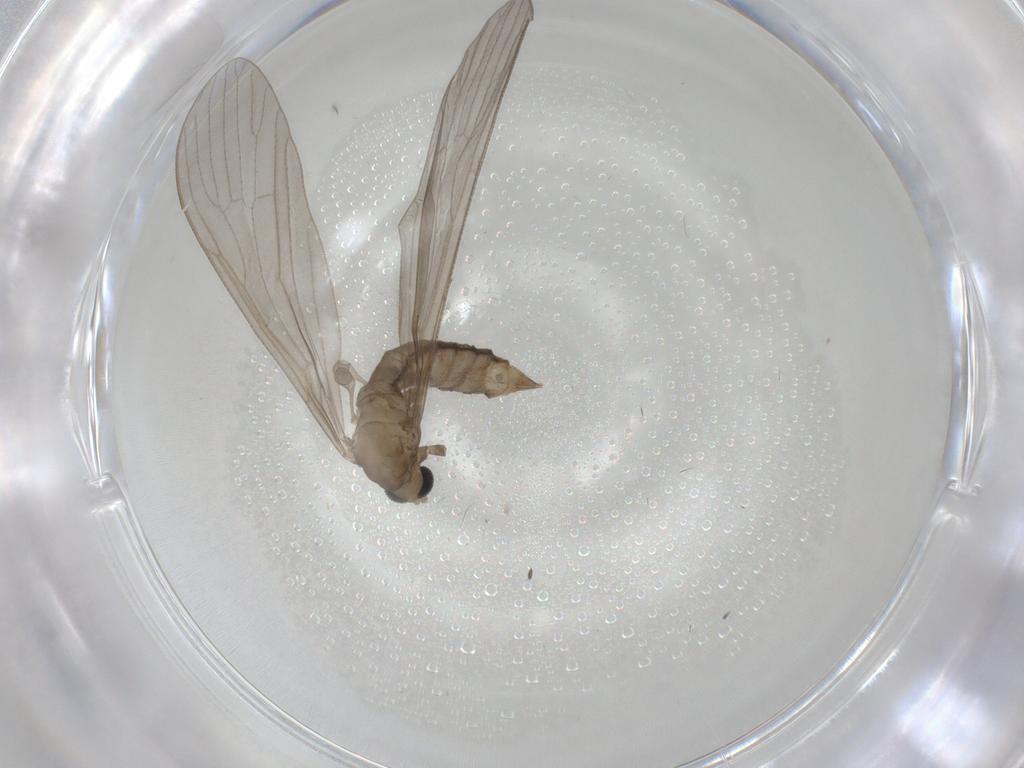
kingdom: Animalia
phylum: Arthropoda
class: Insecta
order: Diptera
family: Limoniidae
